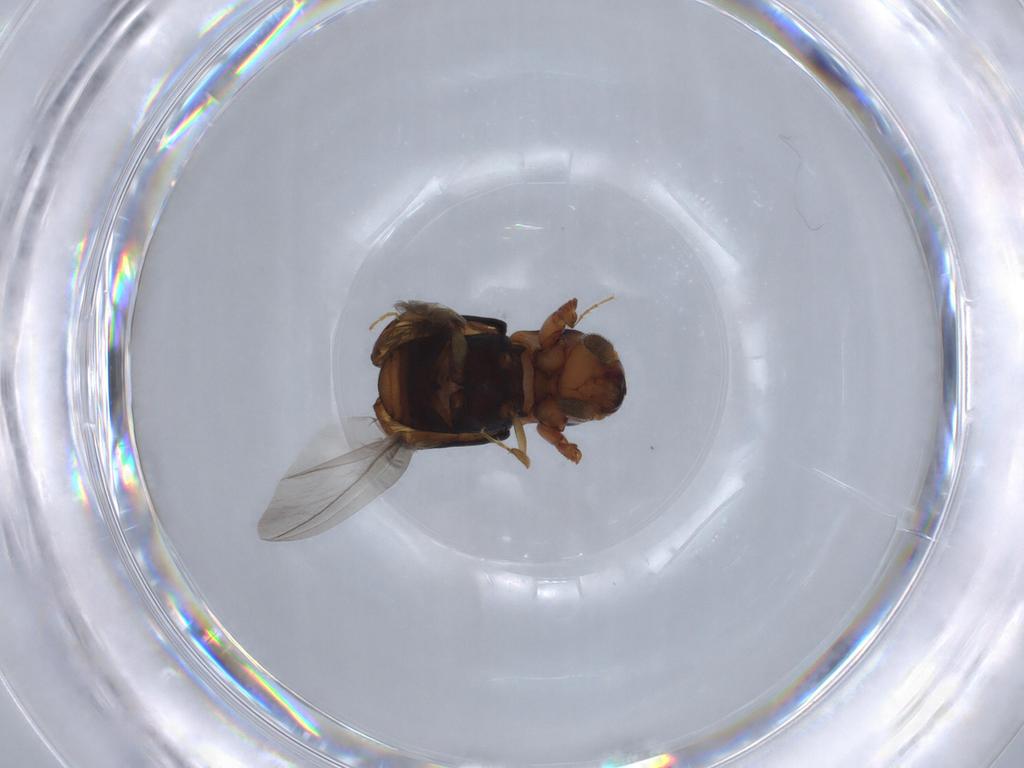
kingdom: Animalia
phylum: Arthropoda
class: Insecta
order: Coleoptera
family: Curculionidae
